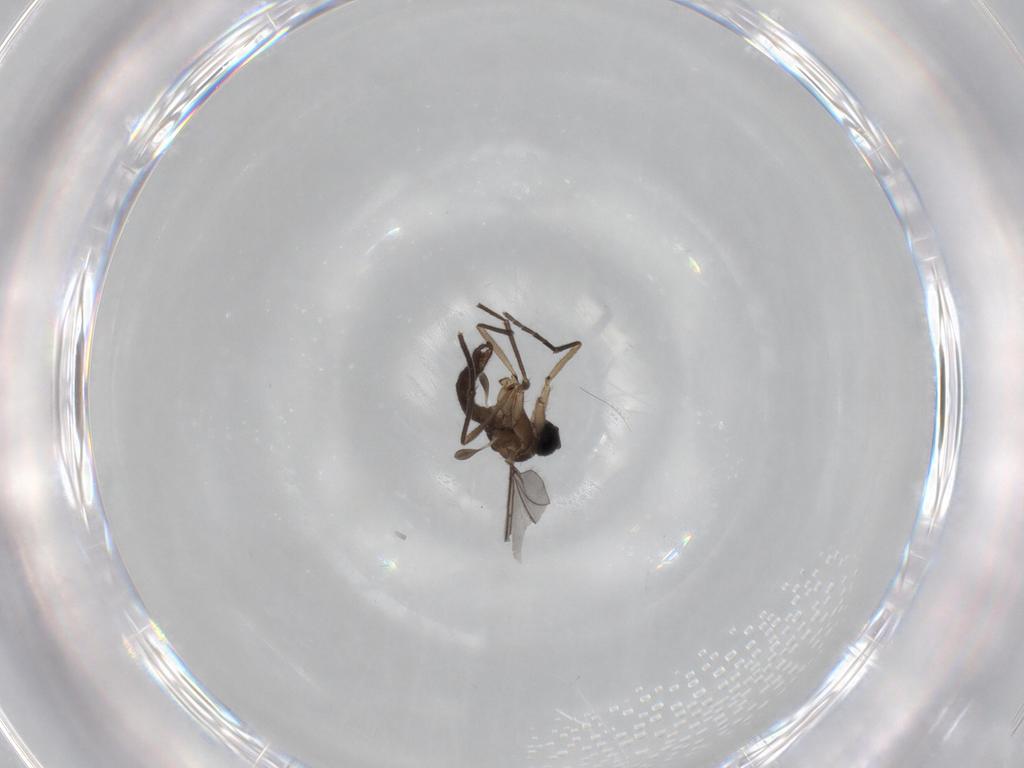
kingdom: Animalia
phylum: Arthropoda
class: Insecta
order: Diptera
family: Sciaridae
